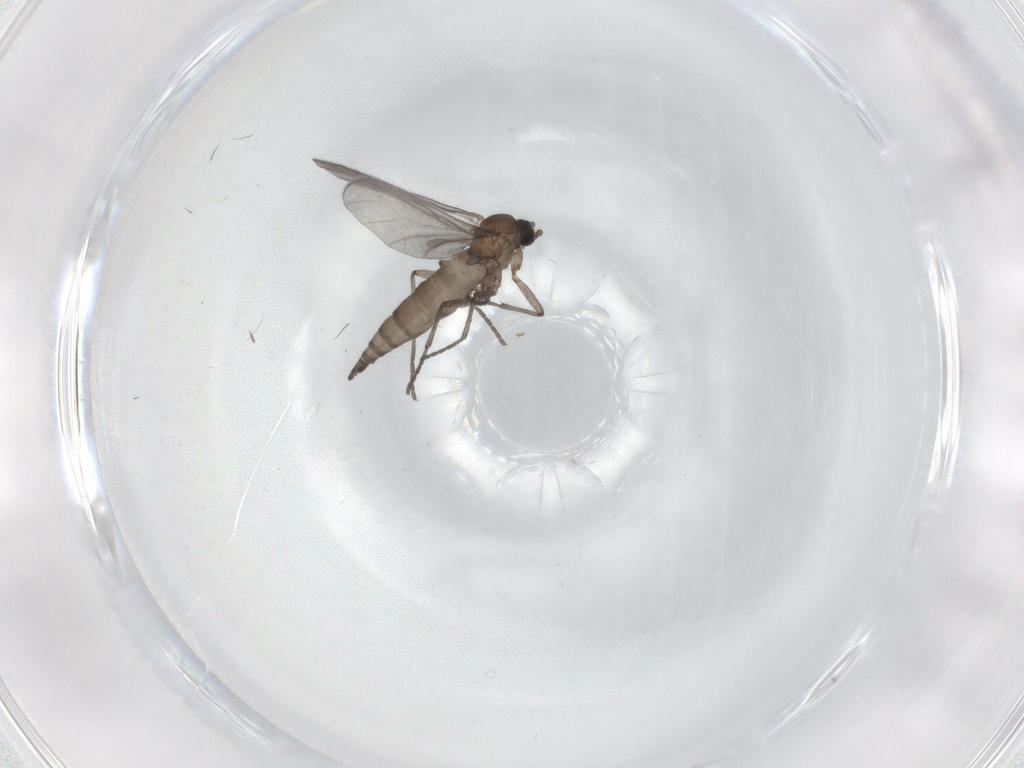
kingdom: Animalia
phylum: Arthropoda
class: Insecta
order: Diptera
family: Sciaridae
